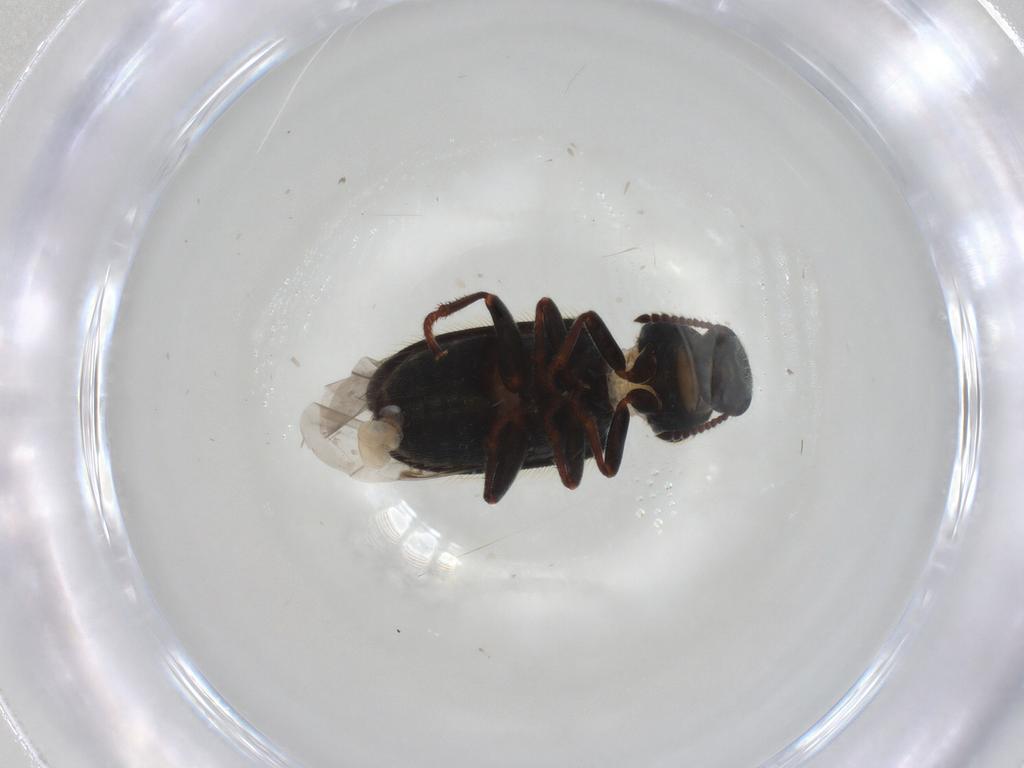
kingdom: Animalia
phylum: Arthropoda
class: Insecta
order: Coleoptera
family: Melyridae
